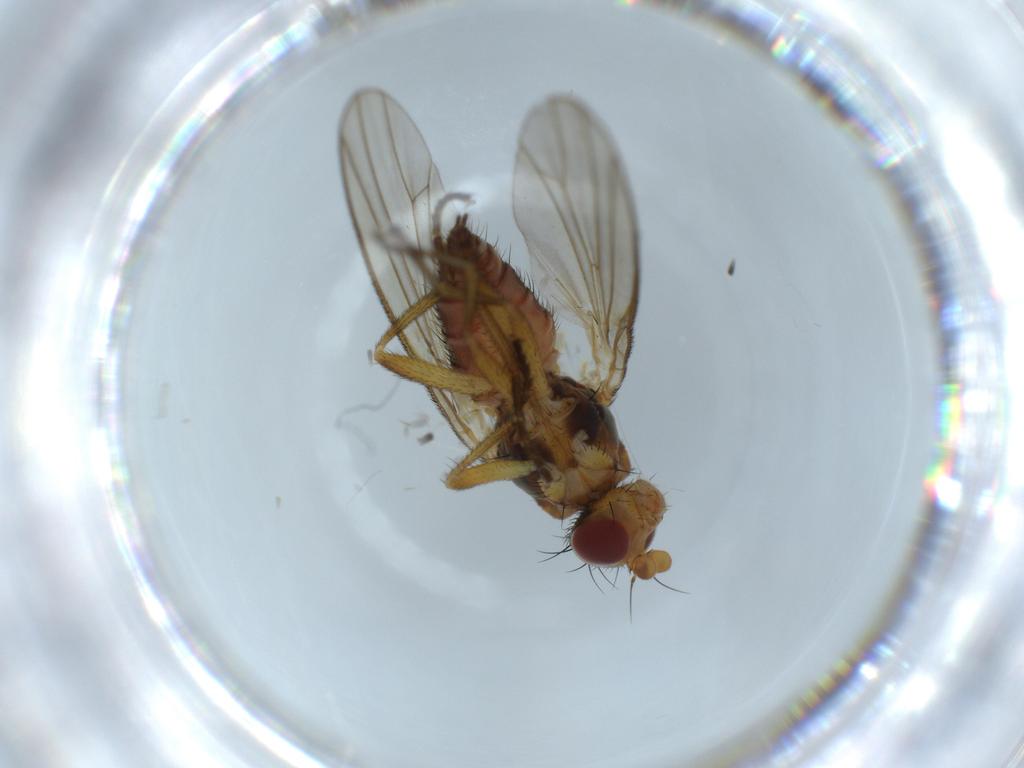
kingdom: Animalia
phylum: Arthropoda
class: Insecta
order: Diptera
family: Heleomyzidae
